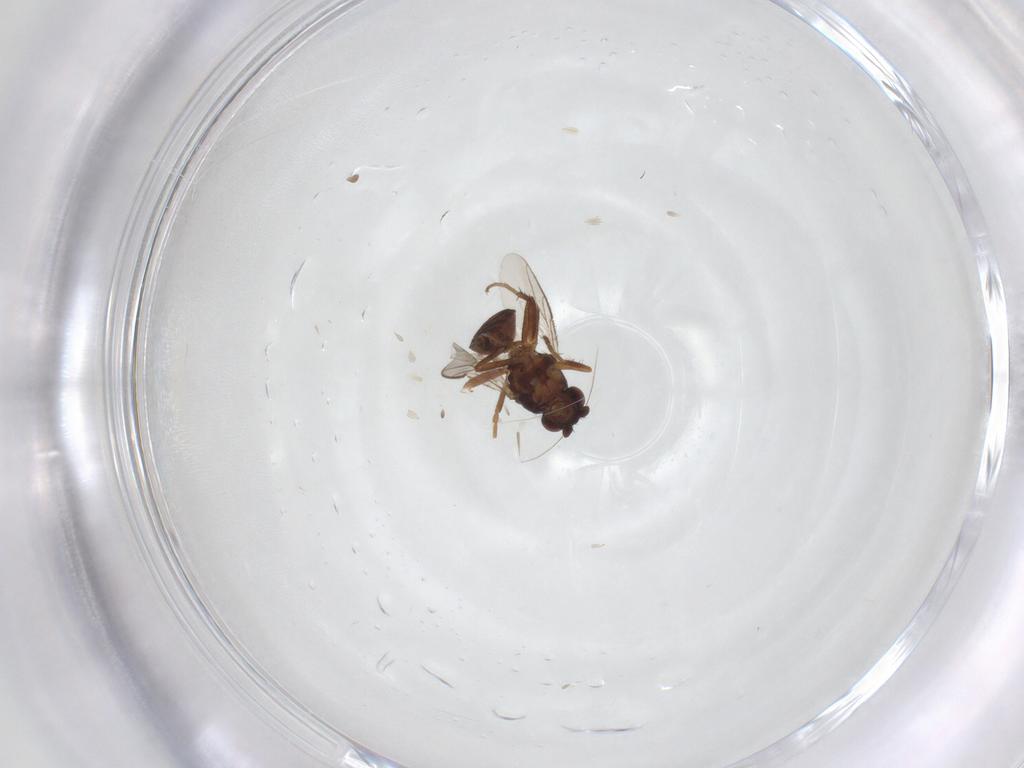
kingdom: Animalia
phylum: Arthropoda
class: Insecta
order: Diptera
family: Sphaeroceridae
